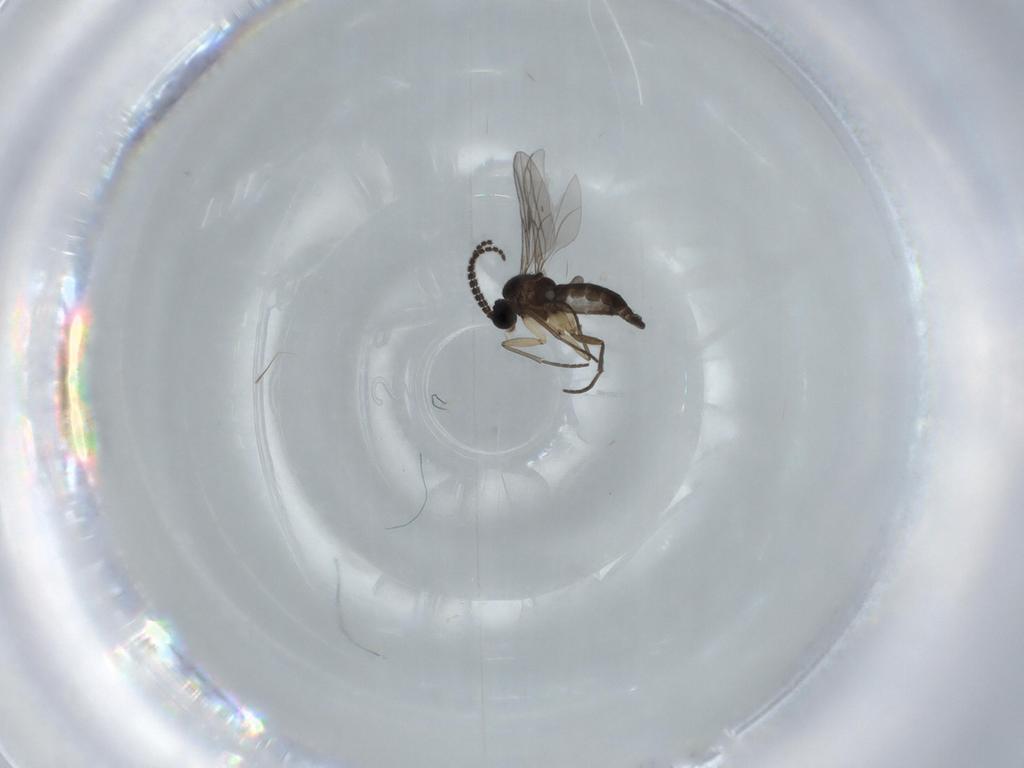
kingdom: Animalia
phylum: Arthropoda
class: Insecta
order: Diptera
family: Sciaridae
